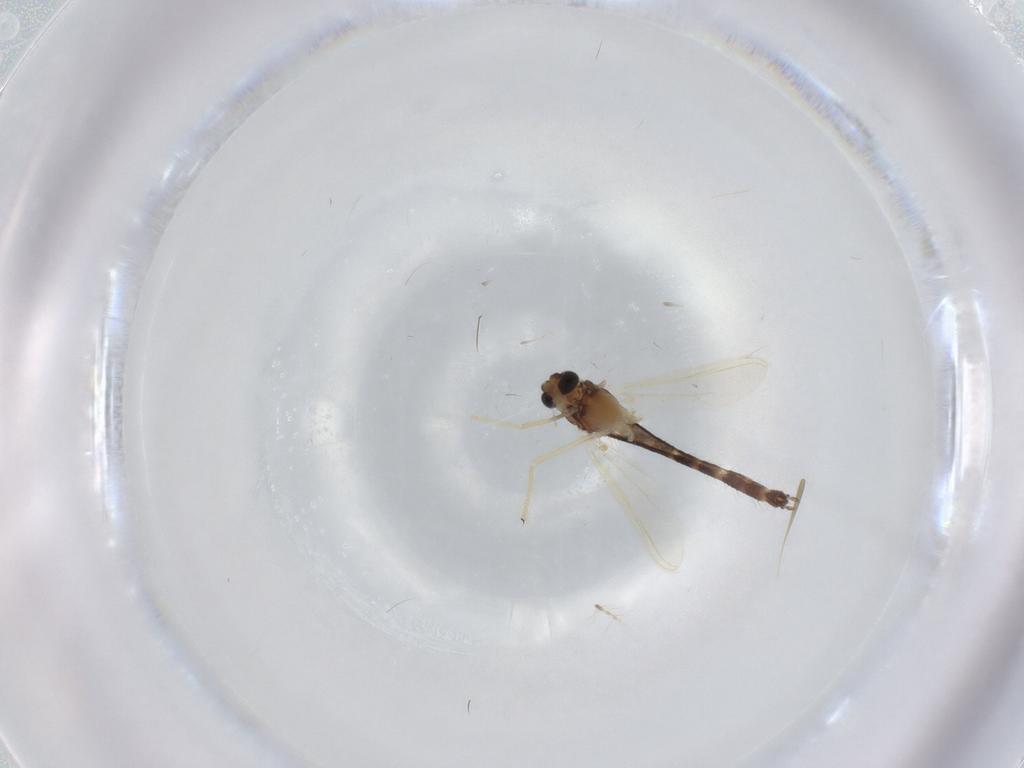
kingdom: Animalia
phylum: Arthropoda
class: Insecta
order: Diptera
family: Chironomidae
